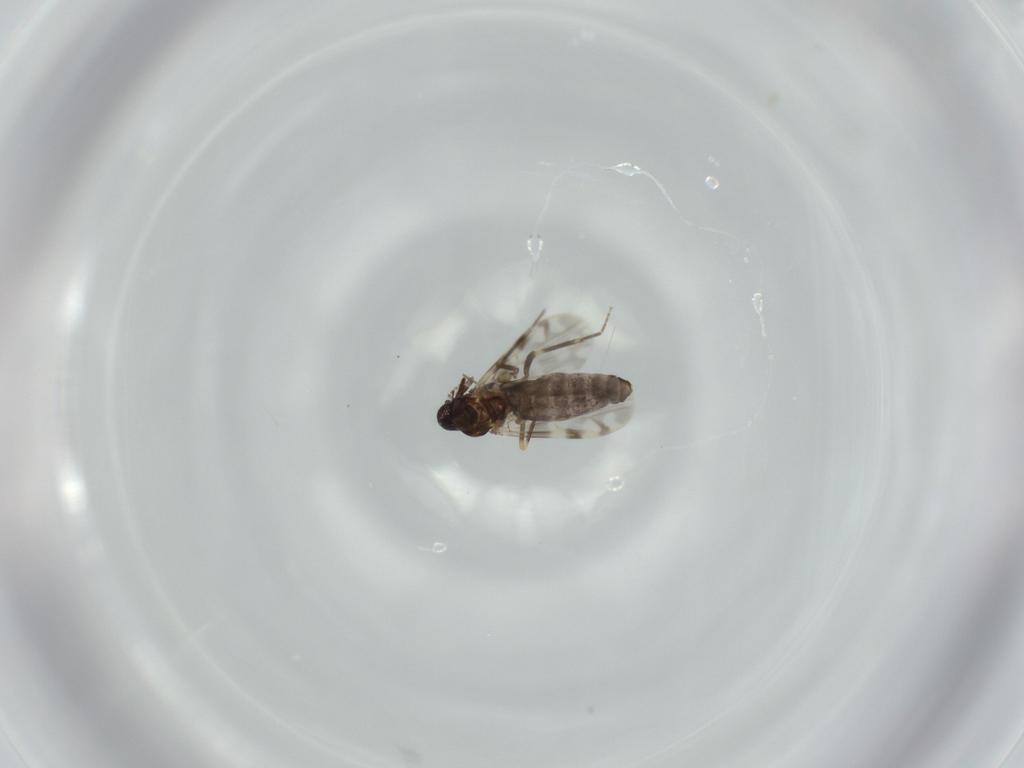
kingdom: Animalia
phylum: Arthropoda
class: Insecta
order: Diptera
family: Ceratopogonidae
